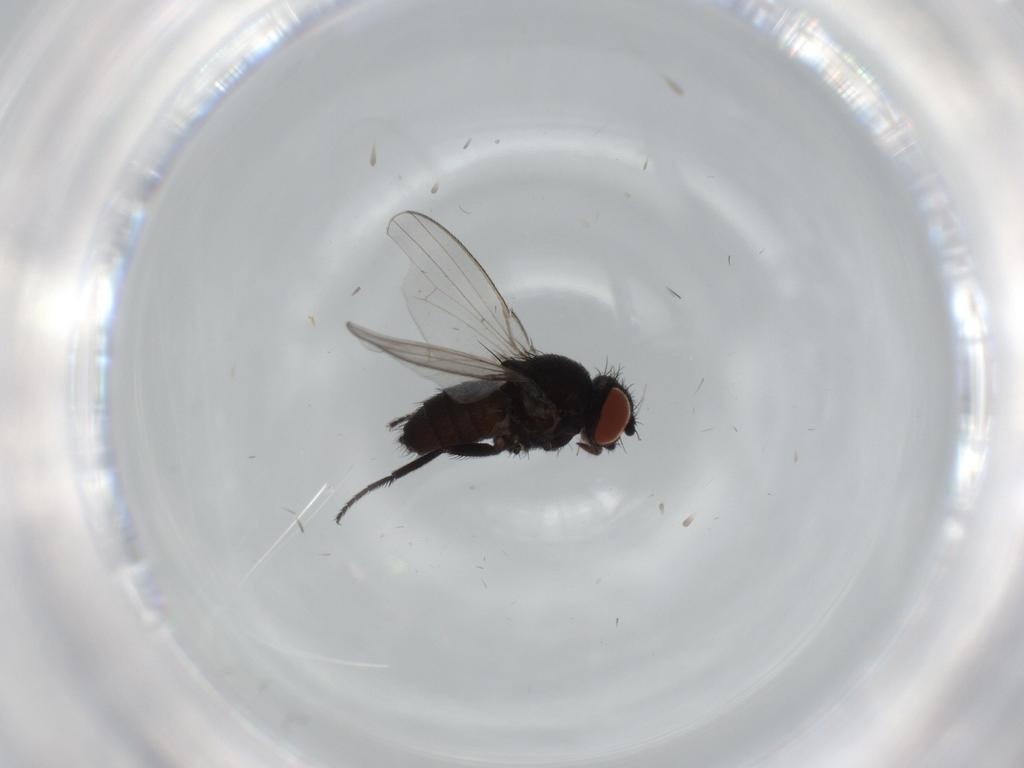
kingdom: Animalia
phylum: Arthropoda
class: Insecta
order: Diptera
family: Milichiidae
